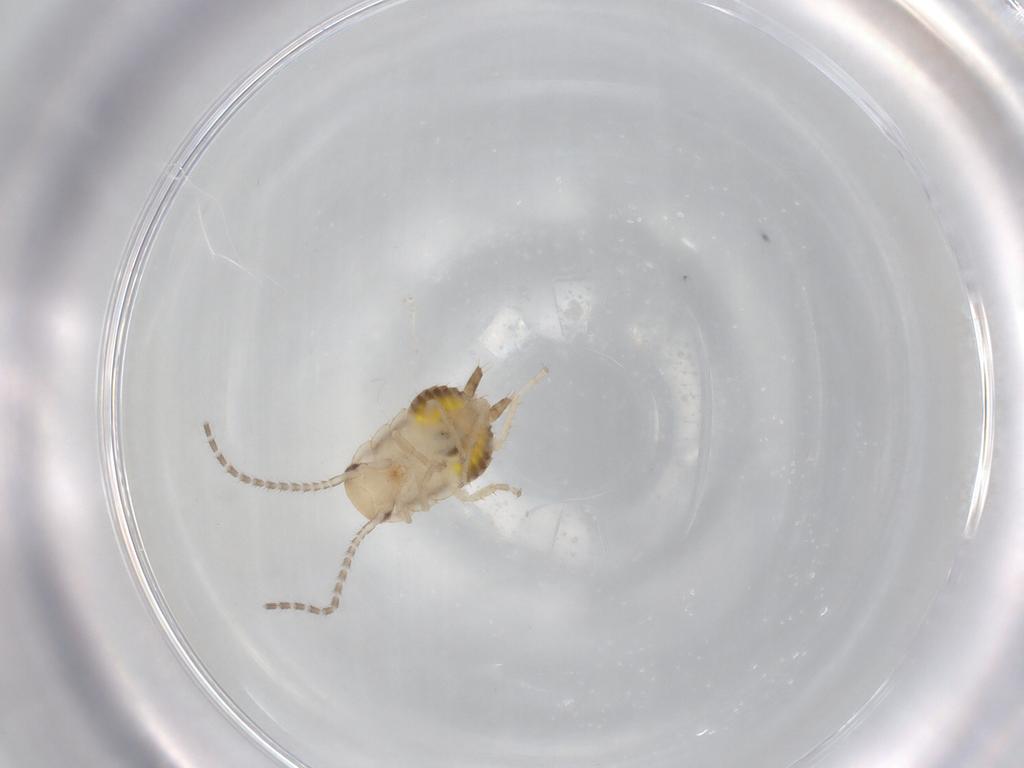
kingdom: Animalia
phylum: Arthropoda
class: Insecta
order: Blattodea
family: Ectobiidae
